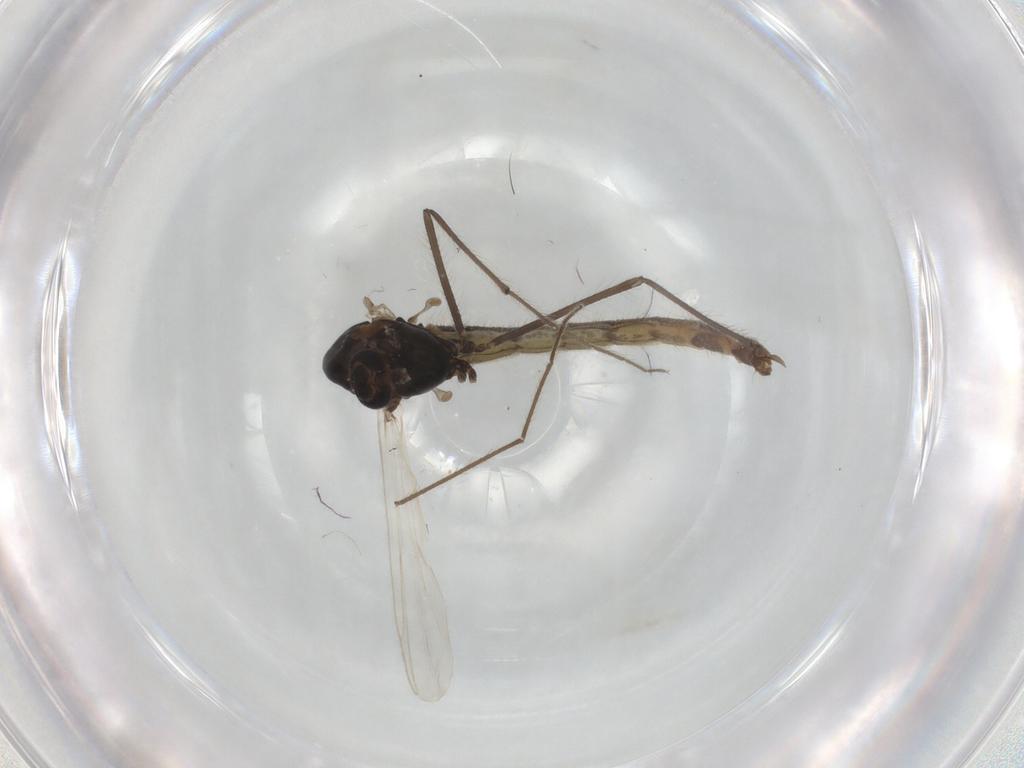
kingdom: Animalia
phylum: Arthropoda
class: Insecta
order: Diptera
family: Chironomidae
